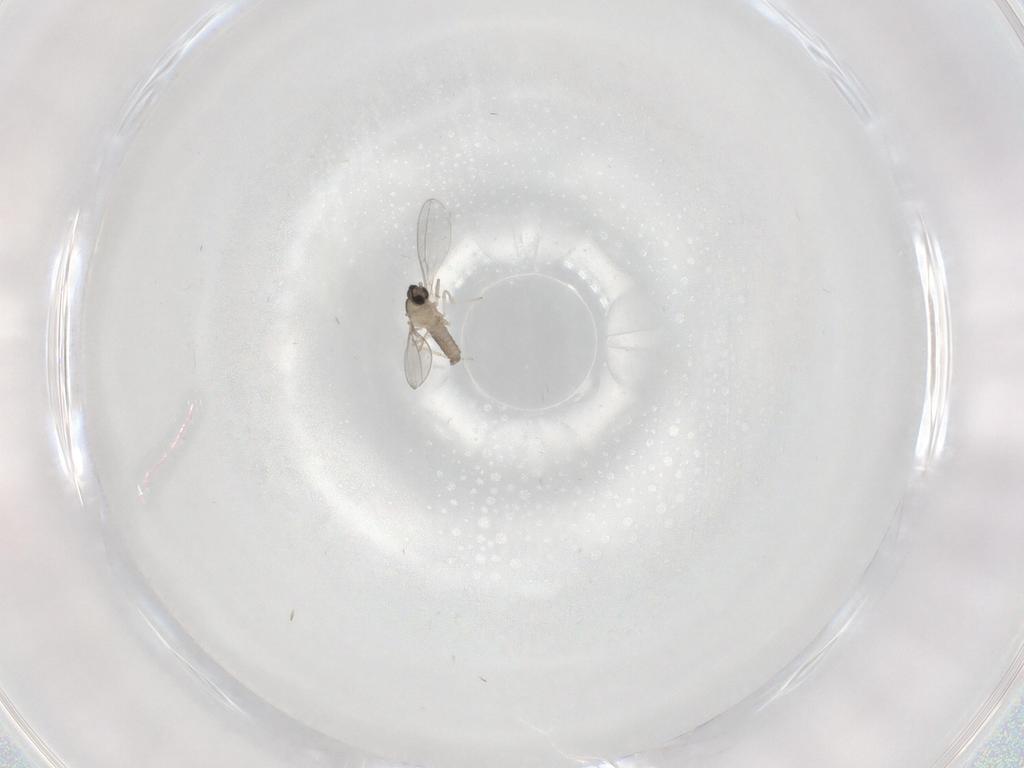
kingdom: Animalia
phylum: Arthropoda
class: Insecta
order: Diptera
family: Cecidomyiidae
